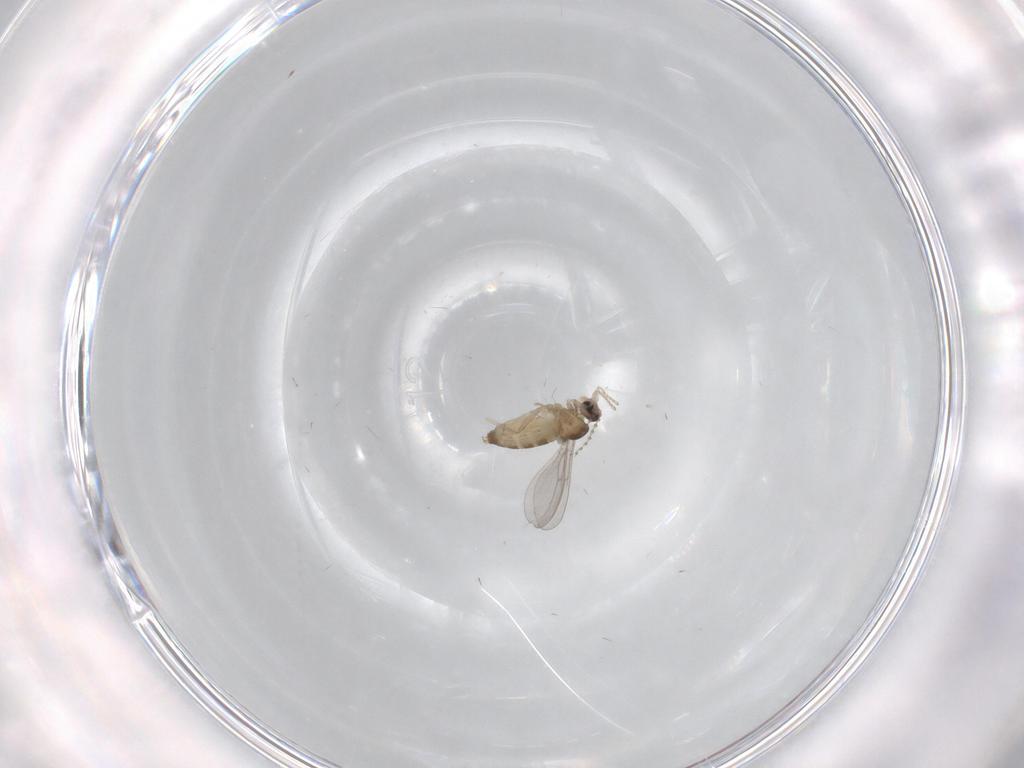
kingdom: Animalia
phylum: Arthropoda
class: Insecta
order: Diptera
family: Cecidomyiidae
